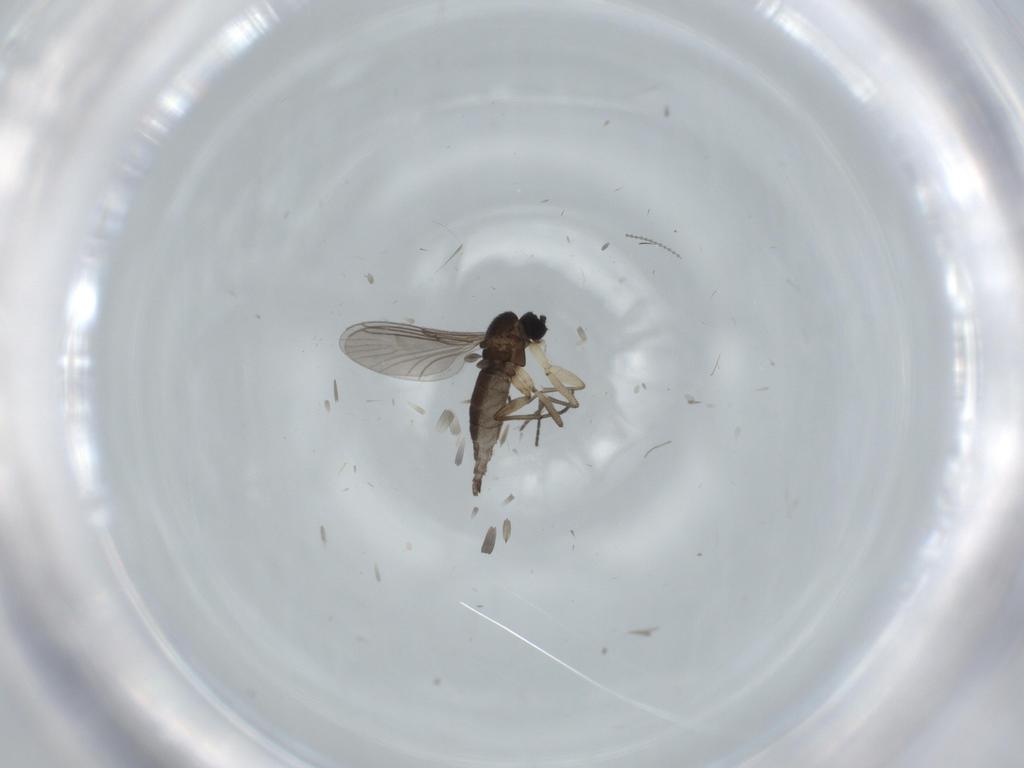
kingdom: Animalia
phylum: Arthropoda
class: Insecta
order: Diptera
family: Sciaridae
